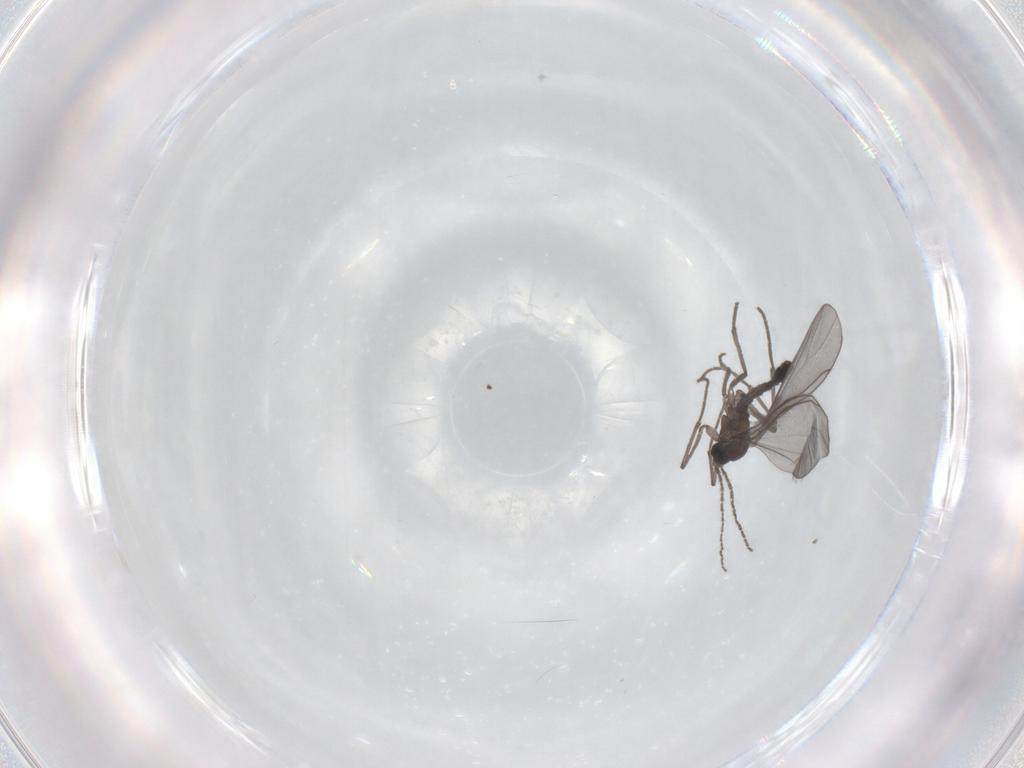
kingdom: Animalia
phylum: Arthropoda
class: Insecta
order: Diptera
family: Sciaridae
